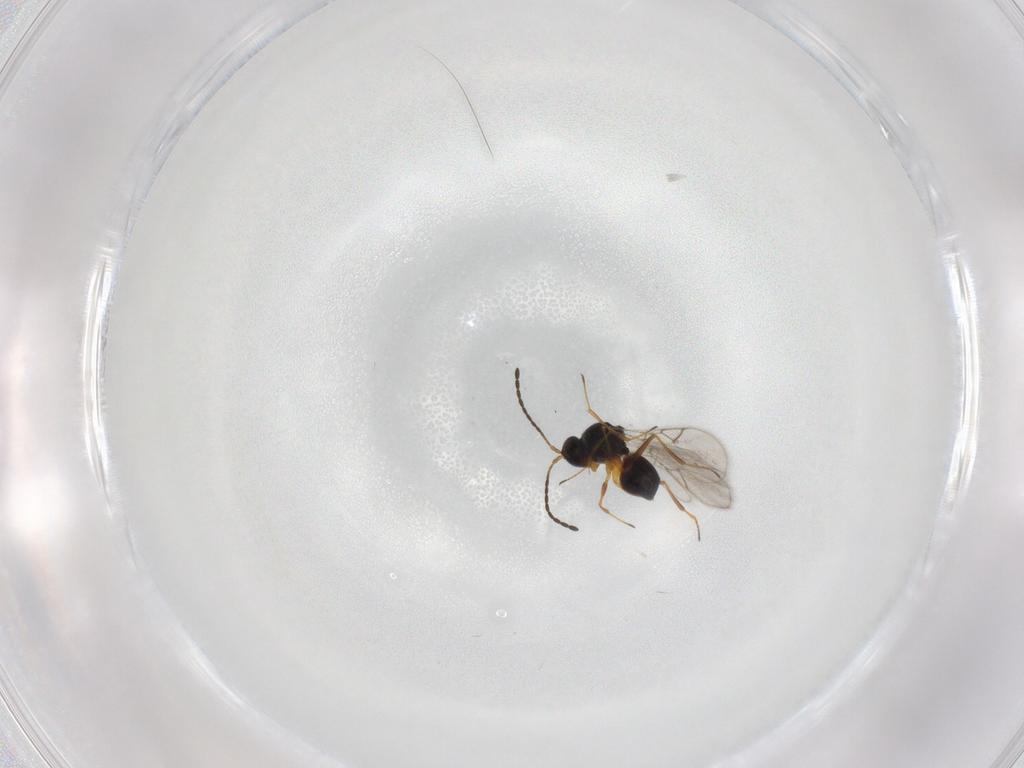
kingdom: Animalia
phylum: Arthropoda
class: Insecta
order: Hymenoptera
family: Figitidae
